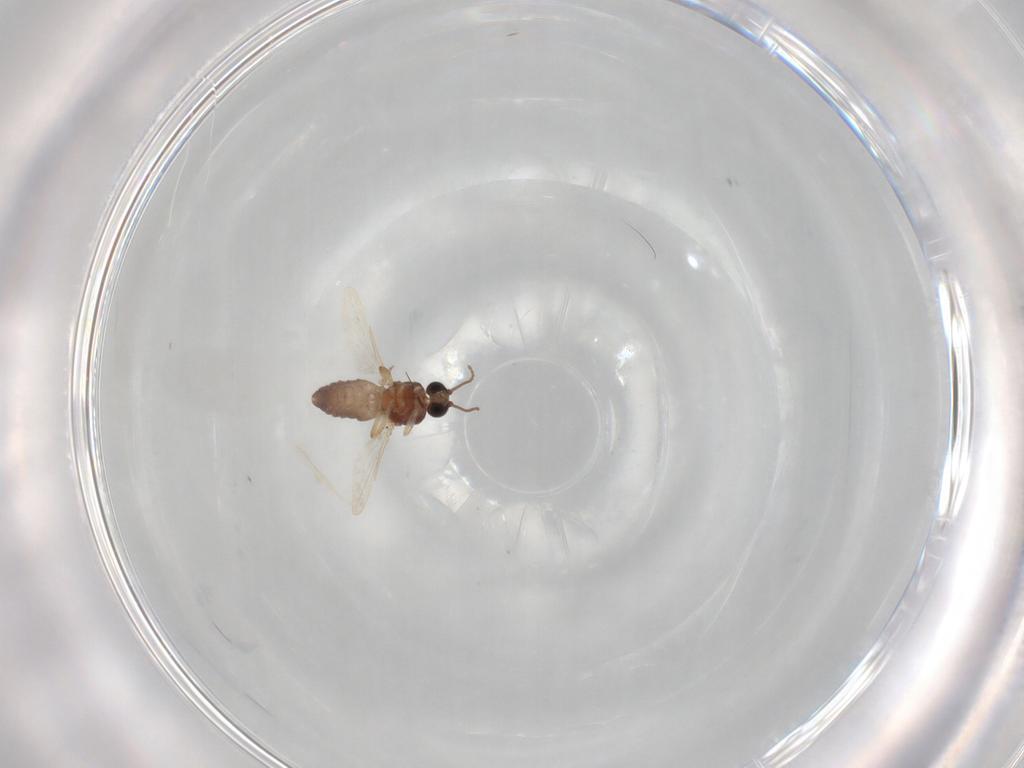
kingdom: Animalia
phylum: Arthropoda
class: Insecta
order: Diptera
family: Ceratopogonidae
